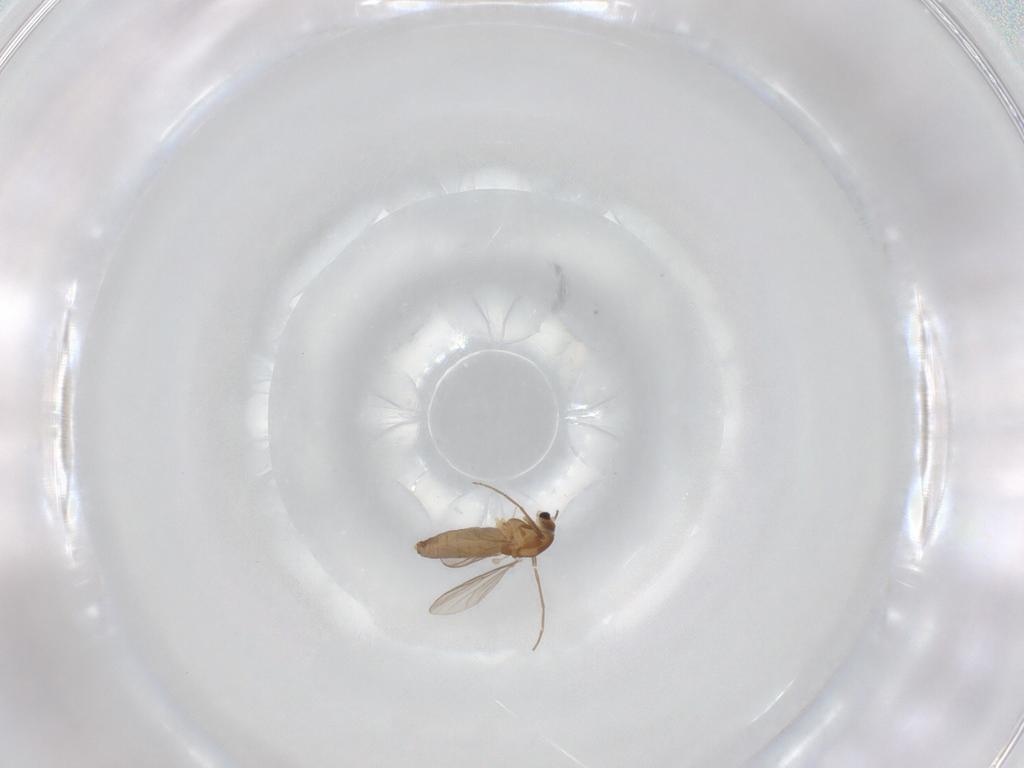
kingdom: Animalia
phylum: Arthropoda
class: Insecta
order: Diptera
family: Chironomidae
